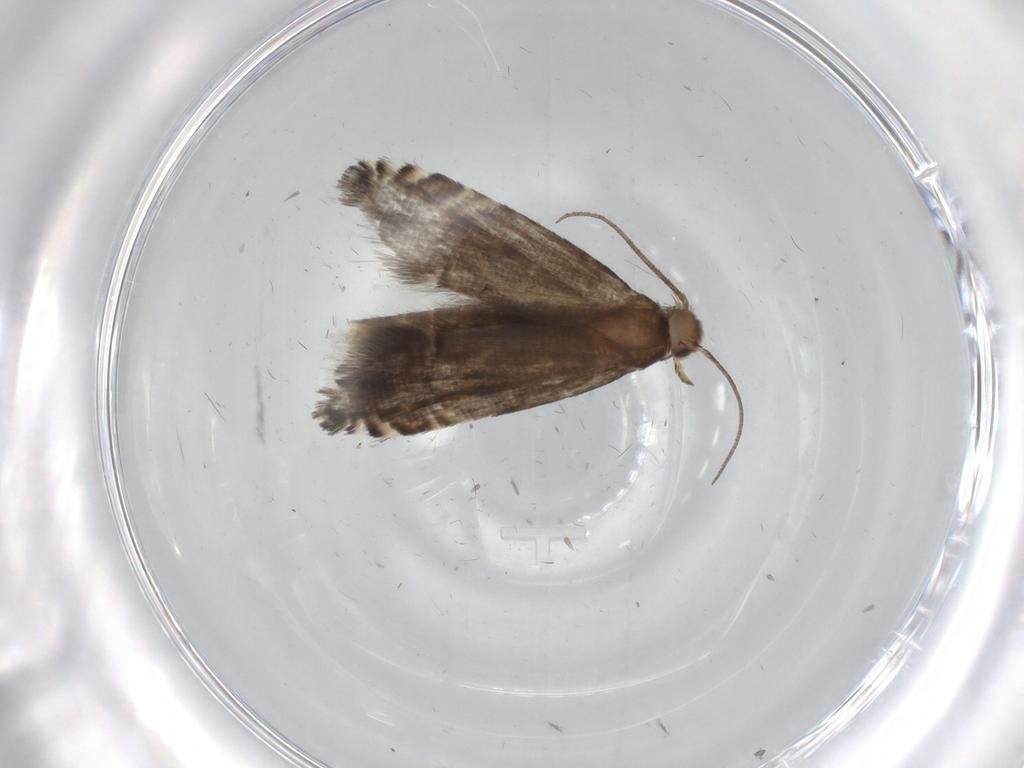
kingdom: Animalia
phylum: Arthropoda
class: Insecta
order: Lepidoptera
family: Glyphipterigidae
